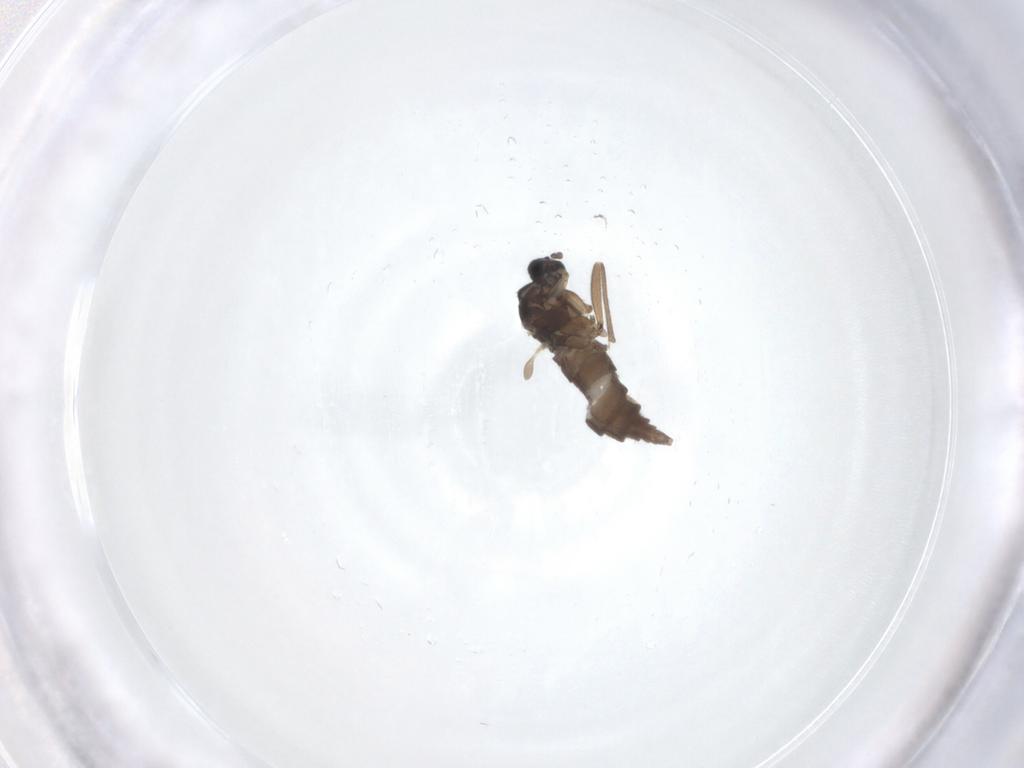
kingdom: Animalia
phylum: Arthropoda
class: Insecta
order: Diptera
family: Sciaridae
